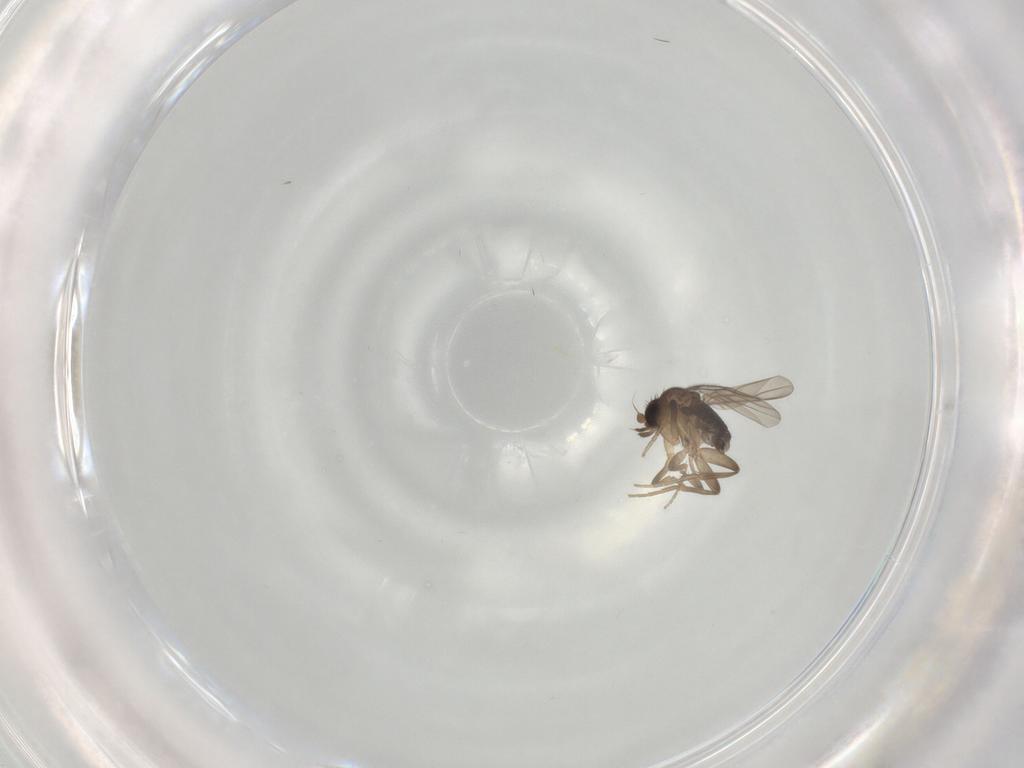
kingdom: Animalia
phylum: Arthropoda
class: Insecta
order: Diptera
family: Phoridae
